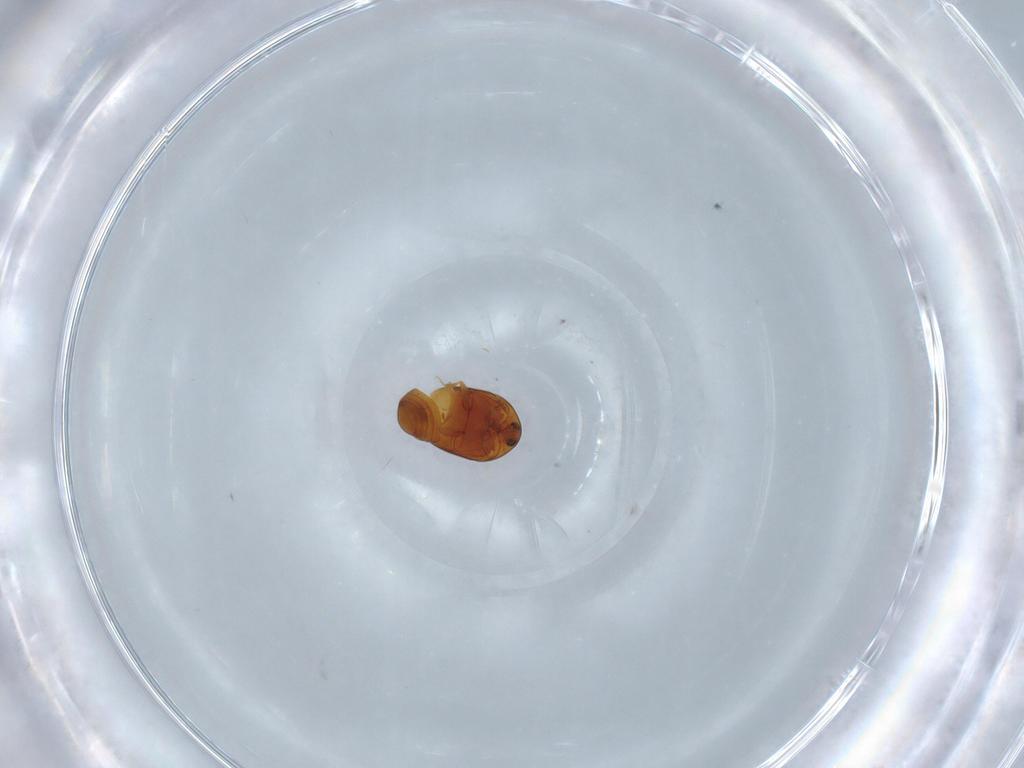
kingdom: Animalia
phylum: Arthropoda
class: Insecta
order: Coleoptera
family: Corylophidae
